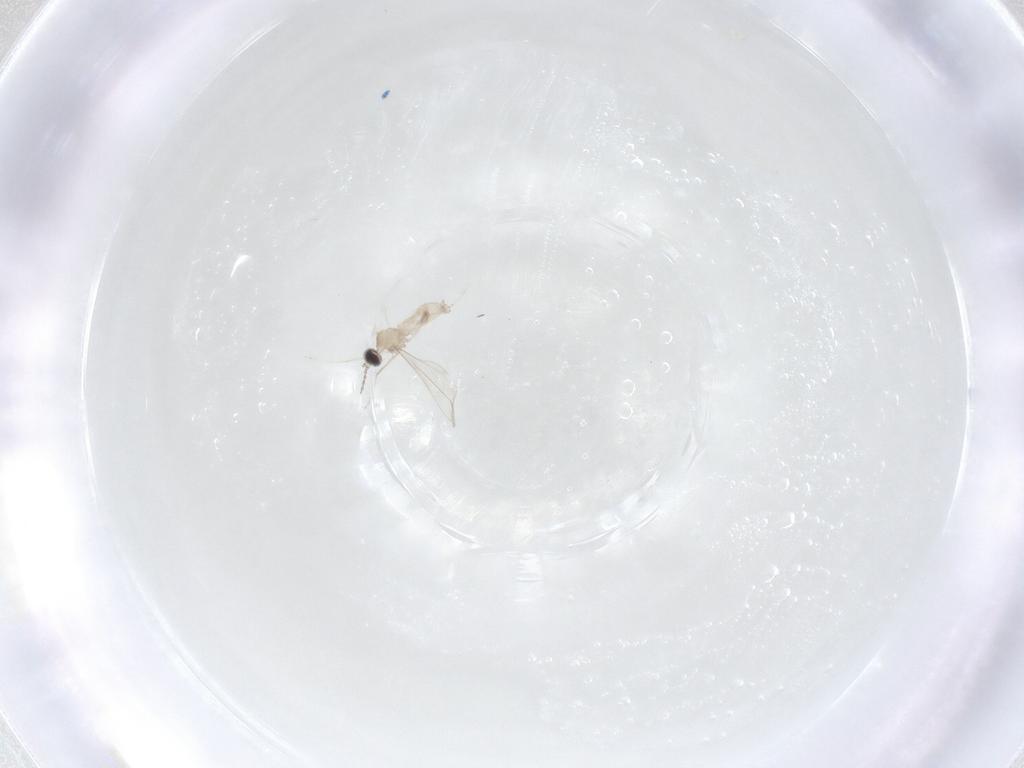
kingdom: Animalia
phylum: Arthropoda
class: Insecta
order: Diptera
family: Cecidomyiidae
